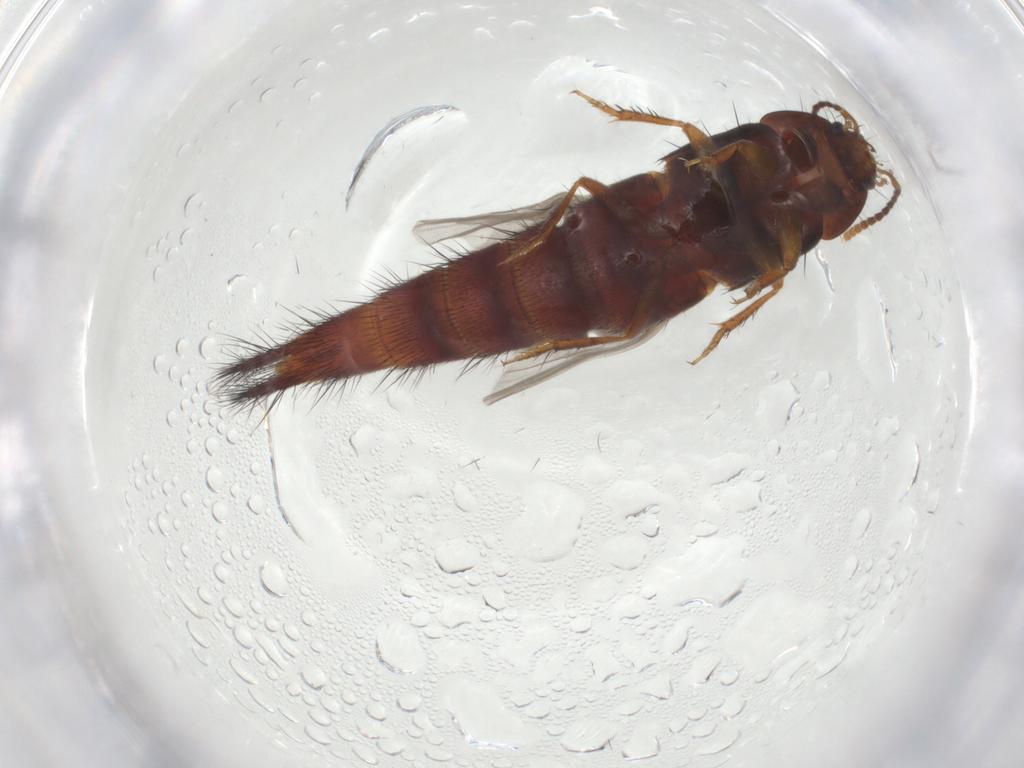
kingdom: Animalia
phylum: Arthropoda
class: Insecta
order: Coleoptera
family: Staphylinidae
